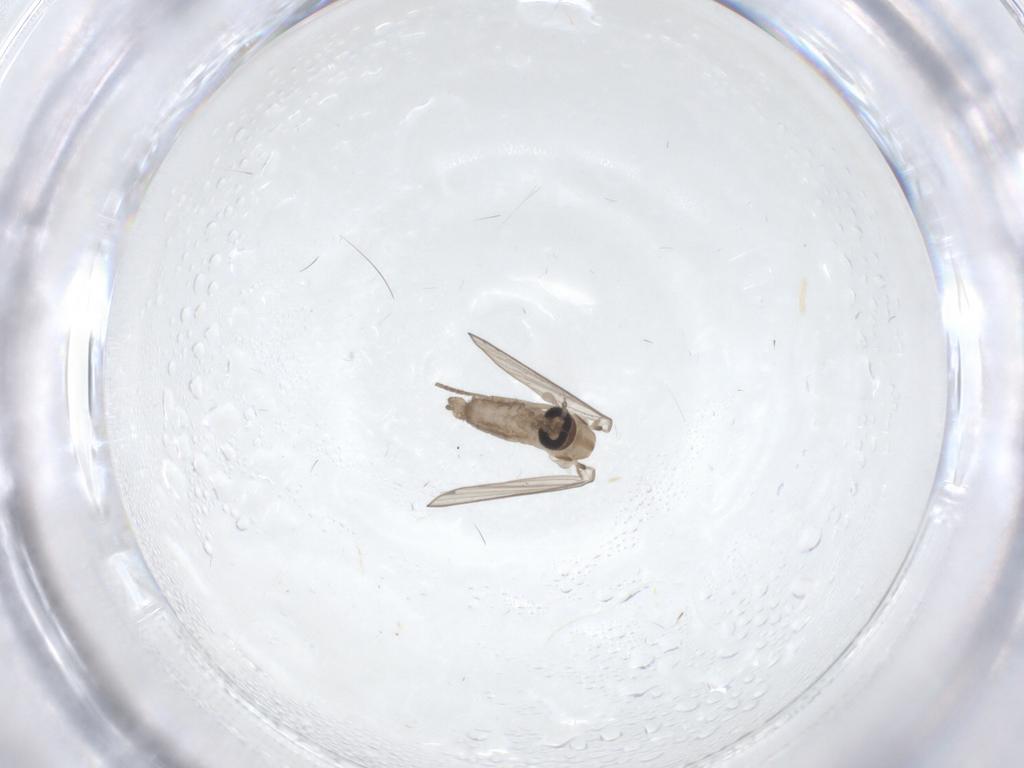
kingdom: Animalia
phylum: Arthropoda
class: Insecta
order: Diptera
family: Psychodidae
